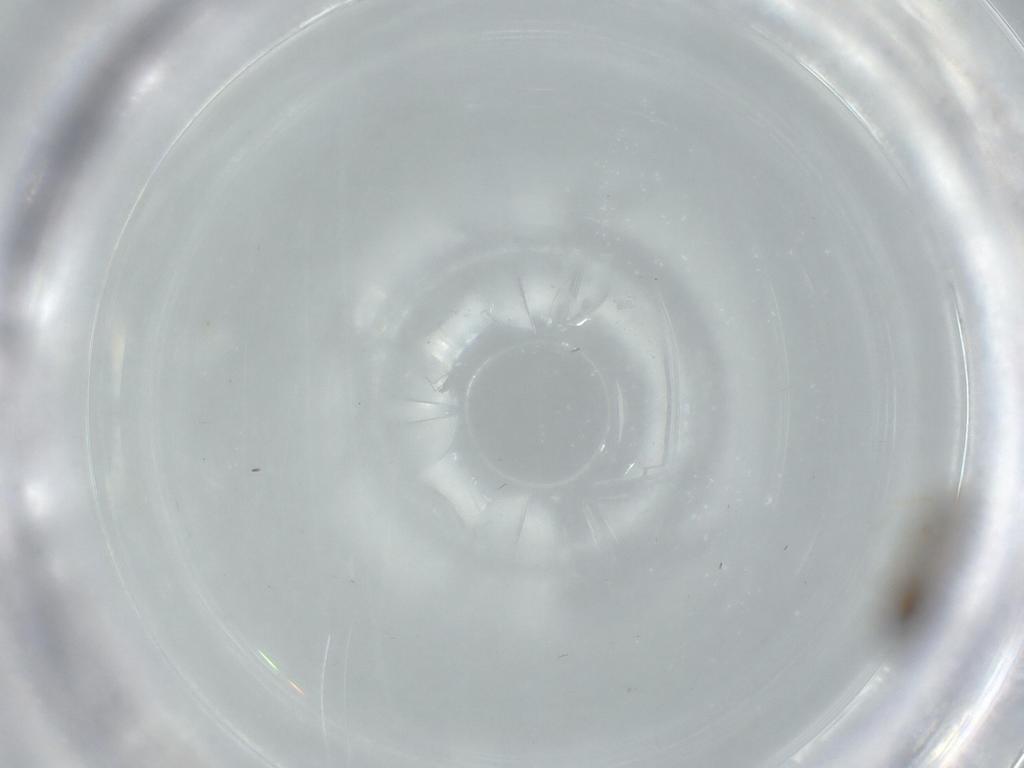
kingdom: Animalia
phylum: Arthropoda
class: Insecta
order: Diptera
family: Cecidomyiidae
